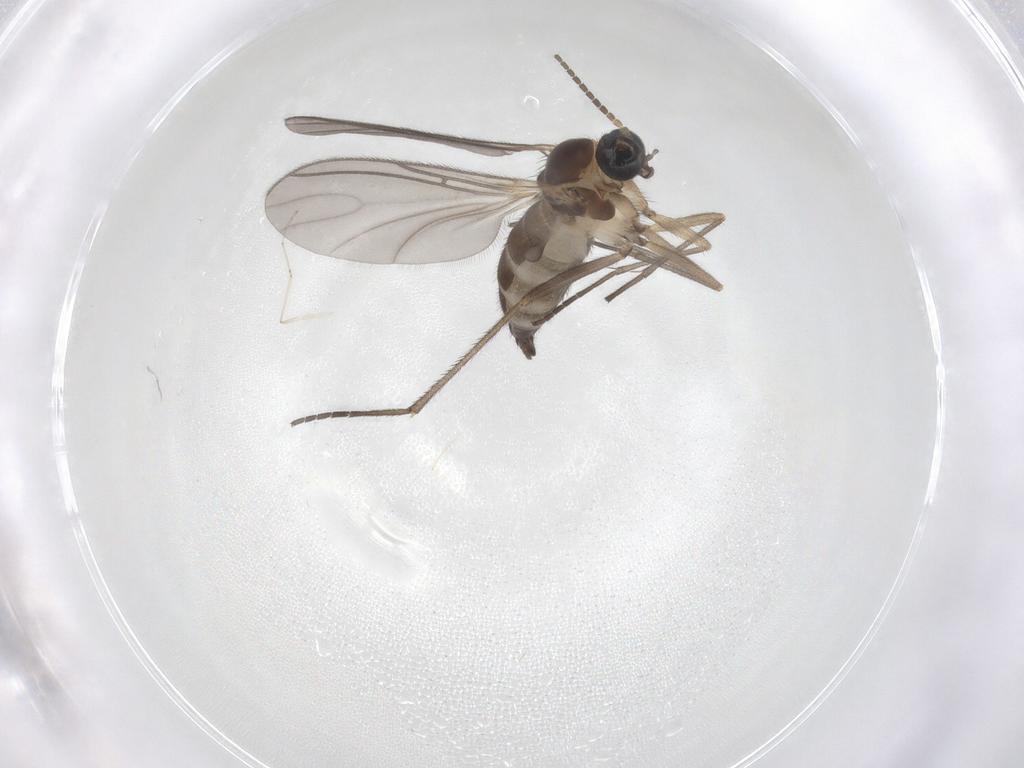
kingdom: Animalia
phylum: Arthropoda
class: Insecta
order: Diptera
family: Sciaridae
